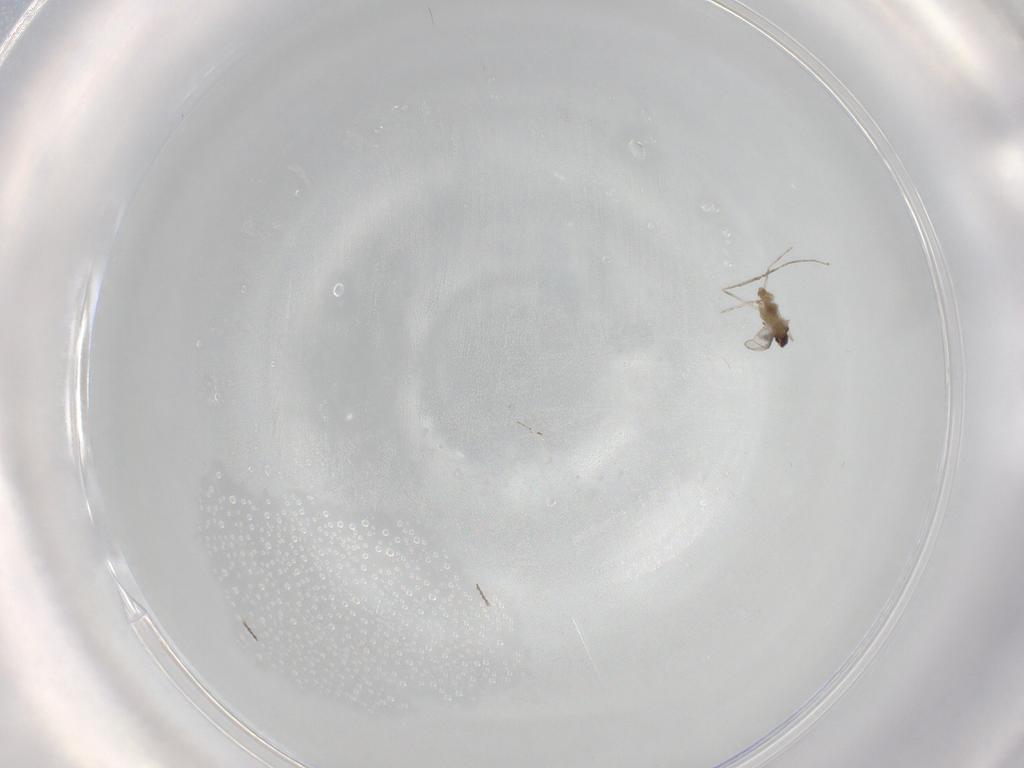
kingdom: Animalia
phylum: Arthropoda
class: Insecta
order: Diptera
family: Cecidomyiidae
